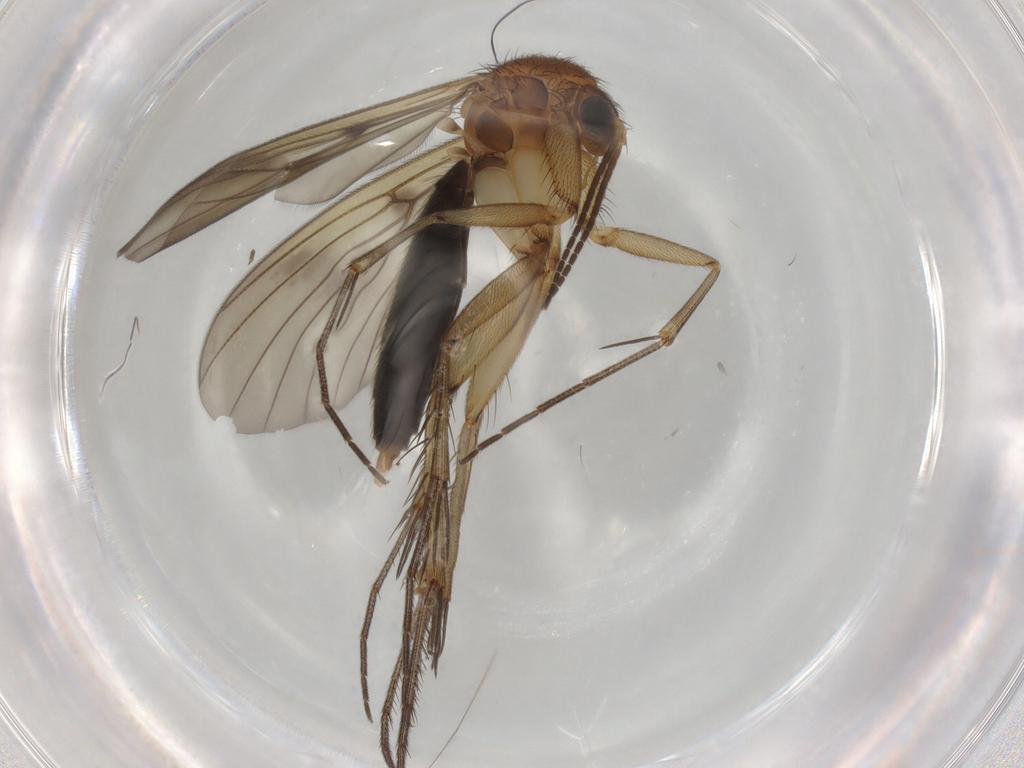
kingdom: Animalia
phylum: Arthropoda
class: Insecta
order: Diptera
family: Mycetophilidae
